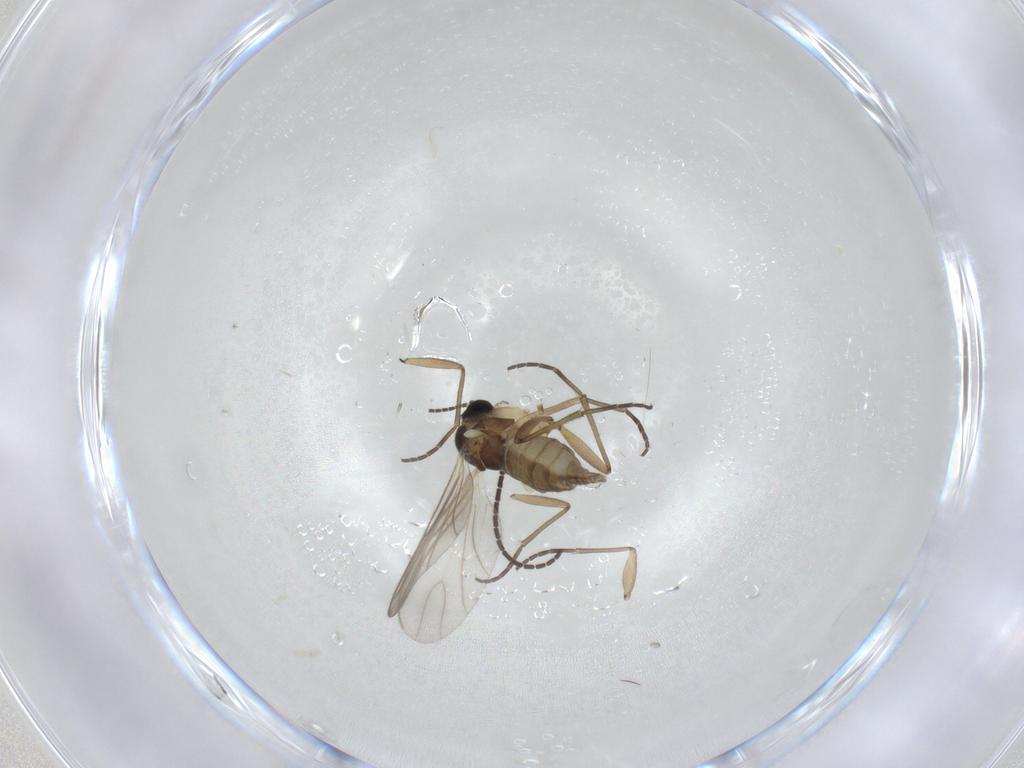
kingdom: Animalia
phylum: Arthropoda
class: Insecta
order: Diptera
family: Sciaridae
